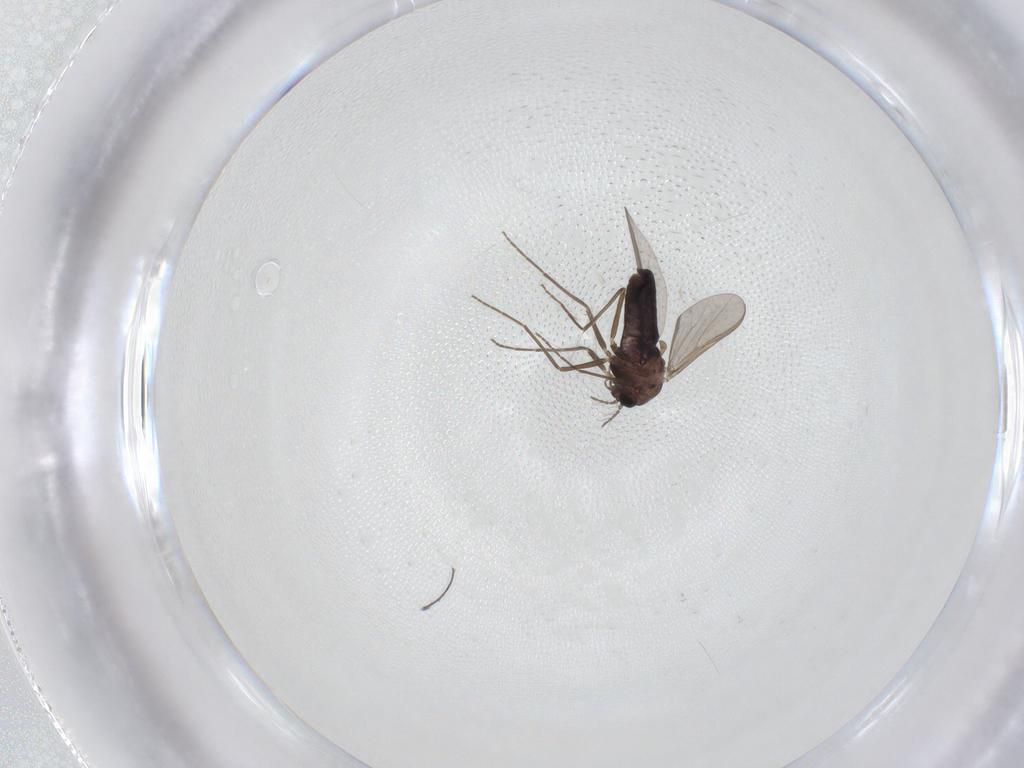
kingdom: Animalia
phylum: Arthropoda
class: Insecta
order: Diptera
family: Chironomidae
